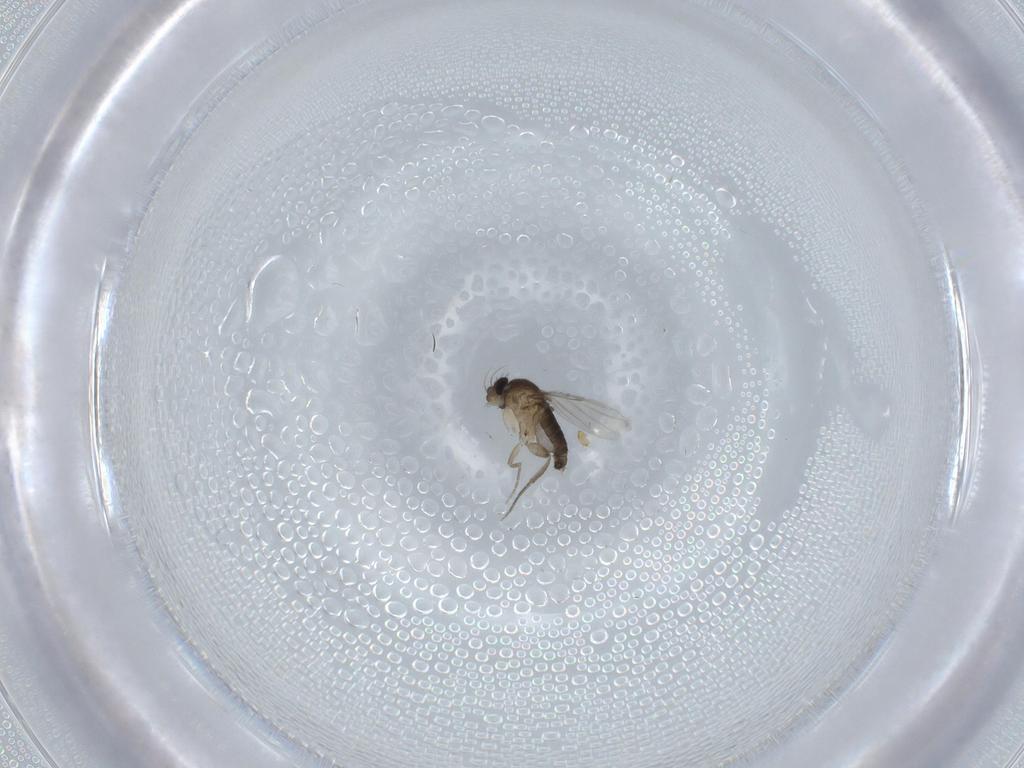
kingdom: Animalia
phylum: Arthropoda
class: Insecta
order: Diptera
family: Phoridae
